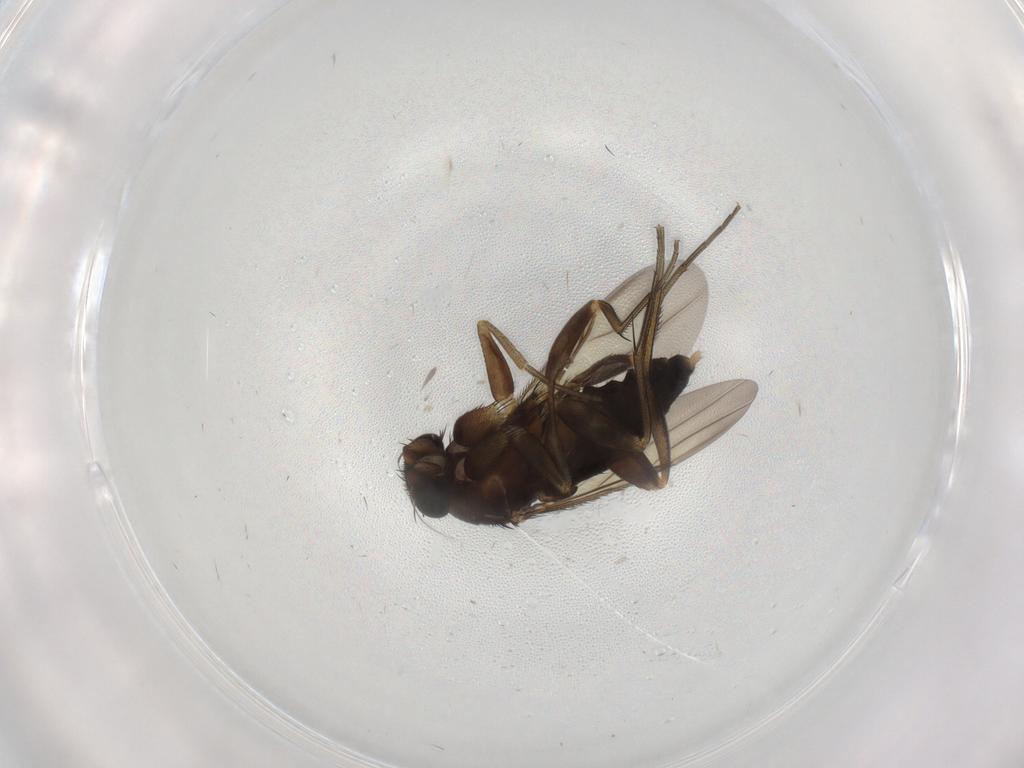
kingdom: Animalia
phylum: Arthropoda
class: Insecta
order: Diptera
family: Phoridae
